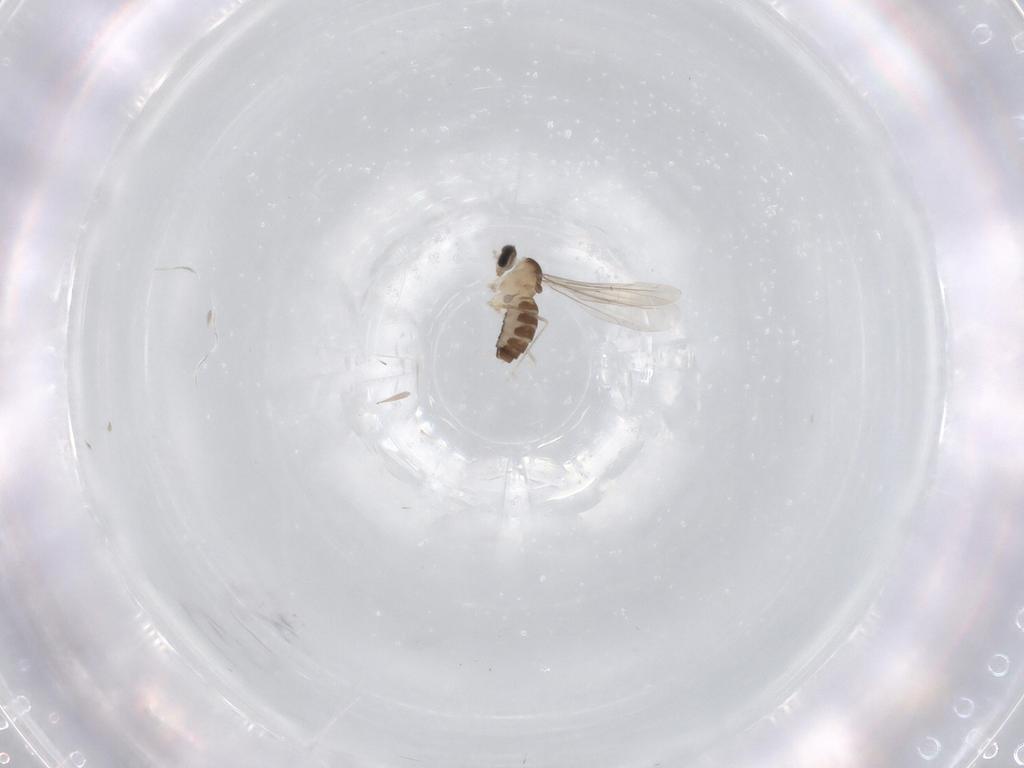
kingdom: Animalia
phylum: Arthropoda
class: Insecta
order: Diptera
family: Cecidomyiidae
